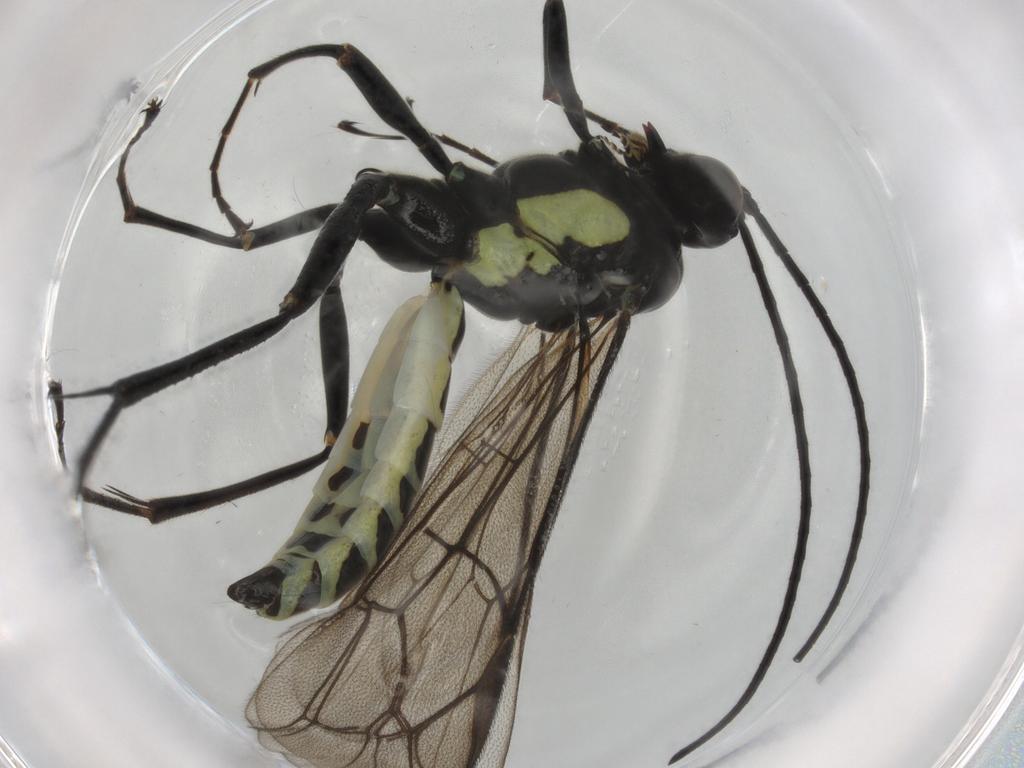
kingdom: Animalia
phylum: Arthropoda
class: Insecta
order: Hymenoptera
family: Ichneumonidae
